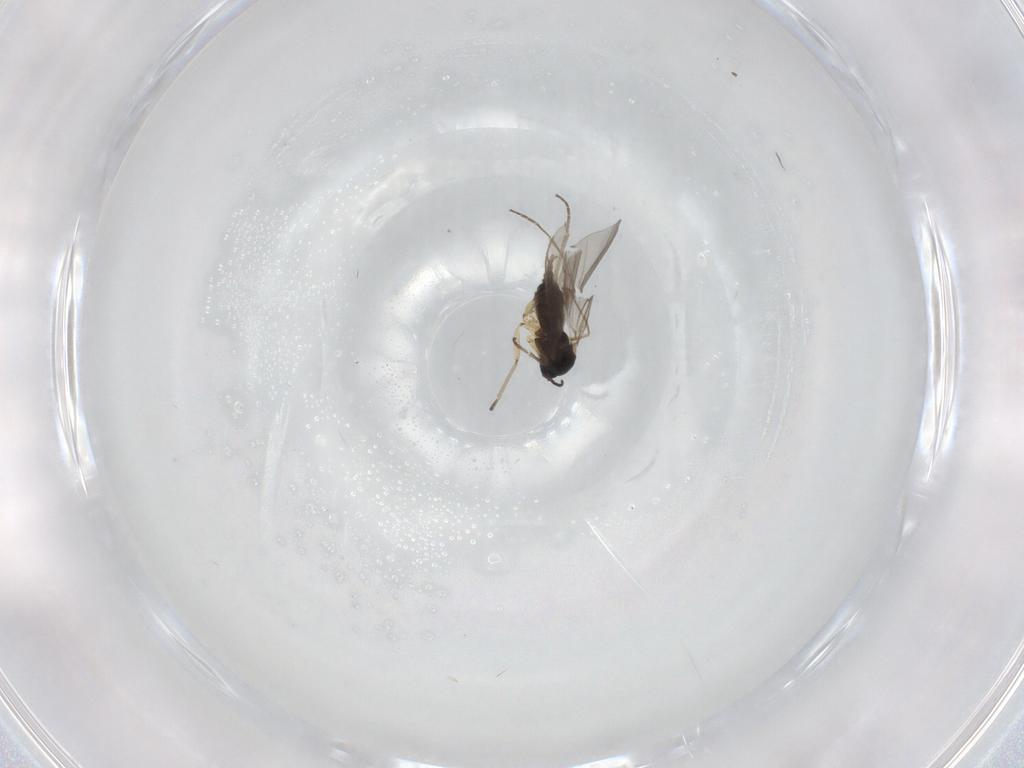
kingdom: Animalia
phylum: Arthropoda
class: Insecta
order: Diptera
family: Sciaridae
